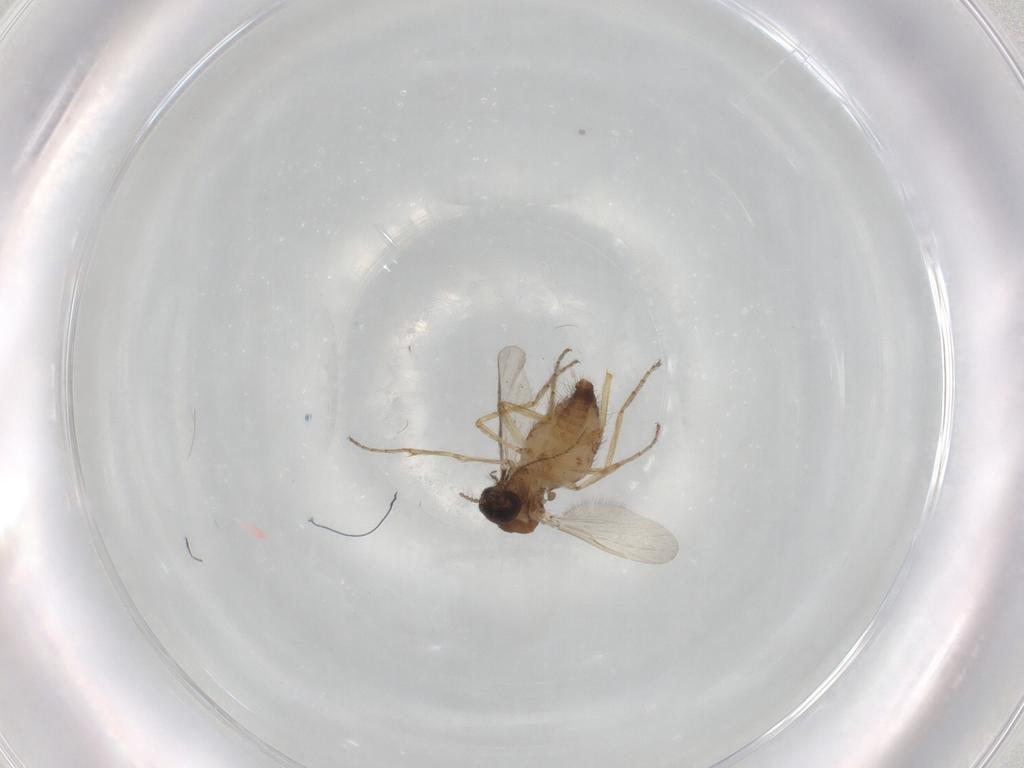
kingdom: Animalia
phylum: Arthropoda
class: Insecta
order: Diptera
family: Ceratopogonidae
